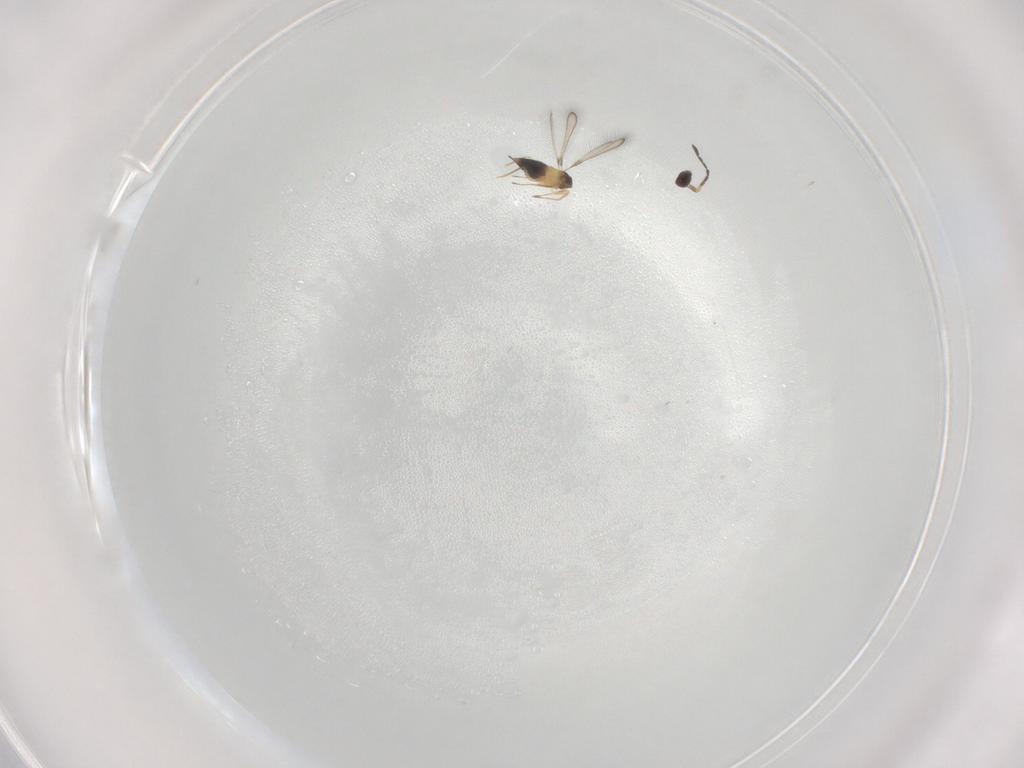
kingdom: Animalia
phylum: Arthropoda
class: Insecta
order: Hymenoptera
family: Mymaridae
